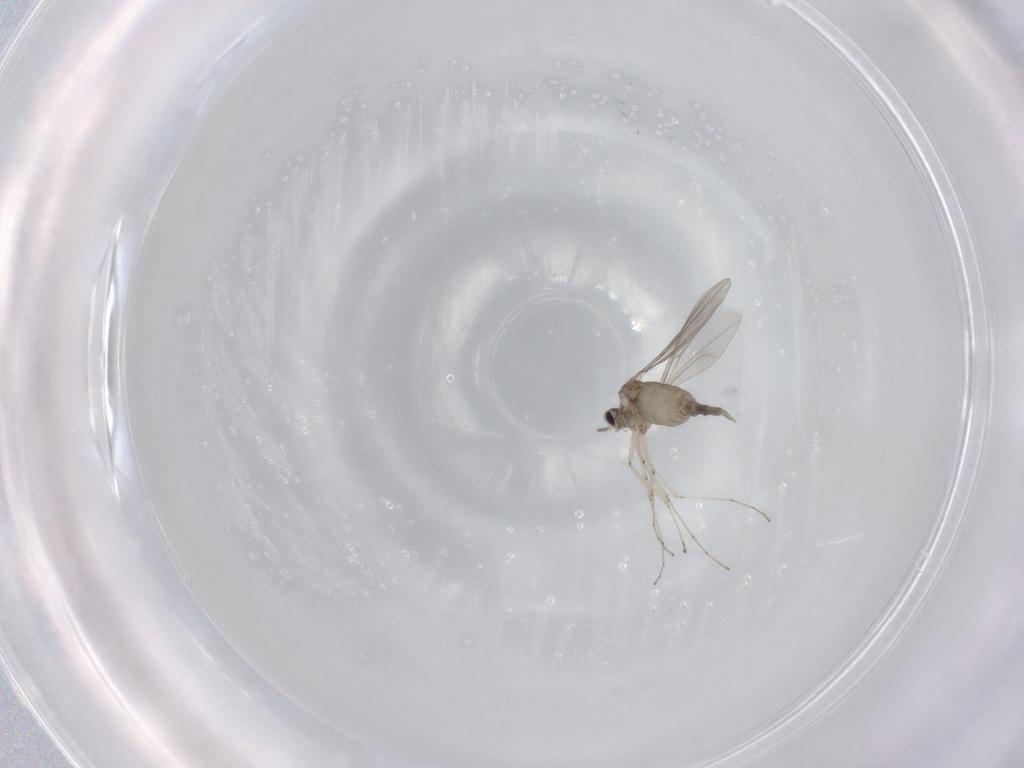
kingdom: Animalia
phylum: Arthropoda
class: Insecta
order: Diptera
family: Cecidomyiidae
